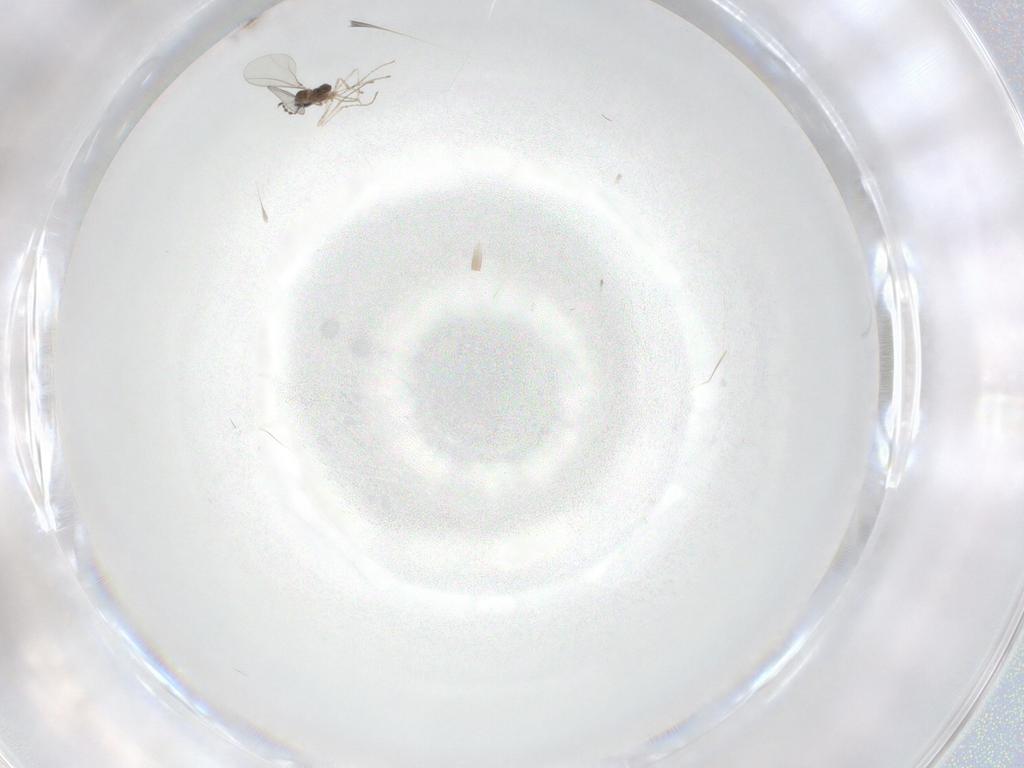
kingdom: Animalia
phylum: Arthropoda
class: Insecta
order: Diptera
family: Cecidomyiidae
